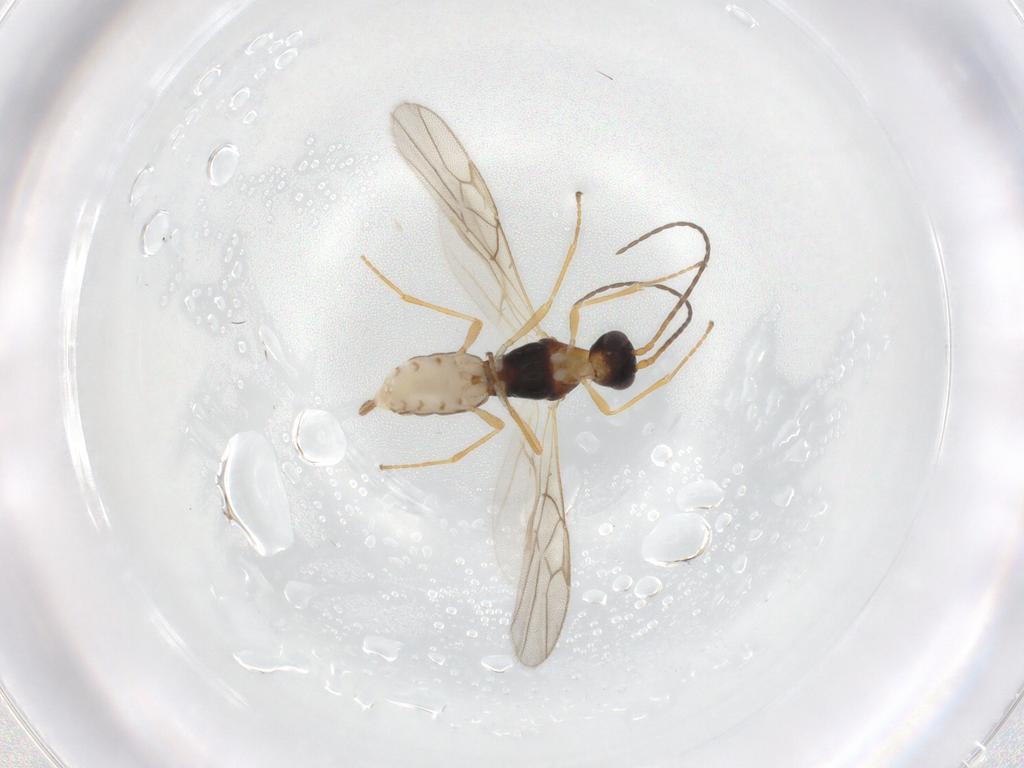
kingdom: Animalia
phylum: Arthropoda
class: Insecta
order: Hymenoptera
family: Braconidae
